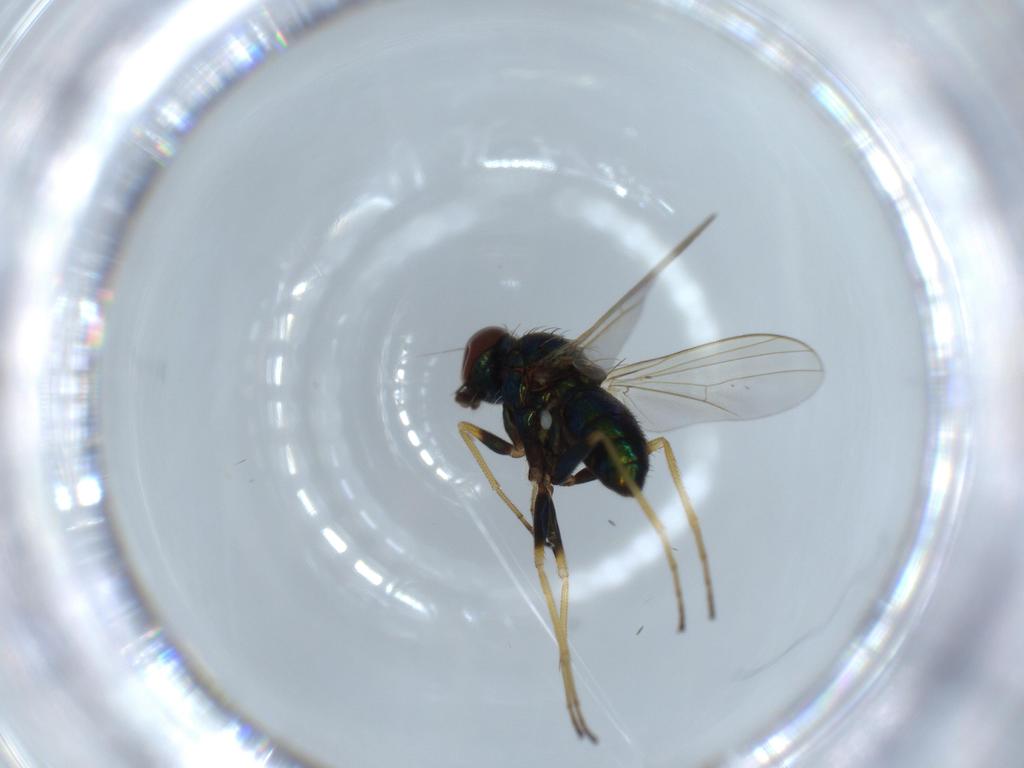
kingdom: Animalia
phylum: Arthropoda
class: Insecta
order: Diptera
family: Dolichopodidae
